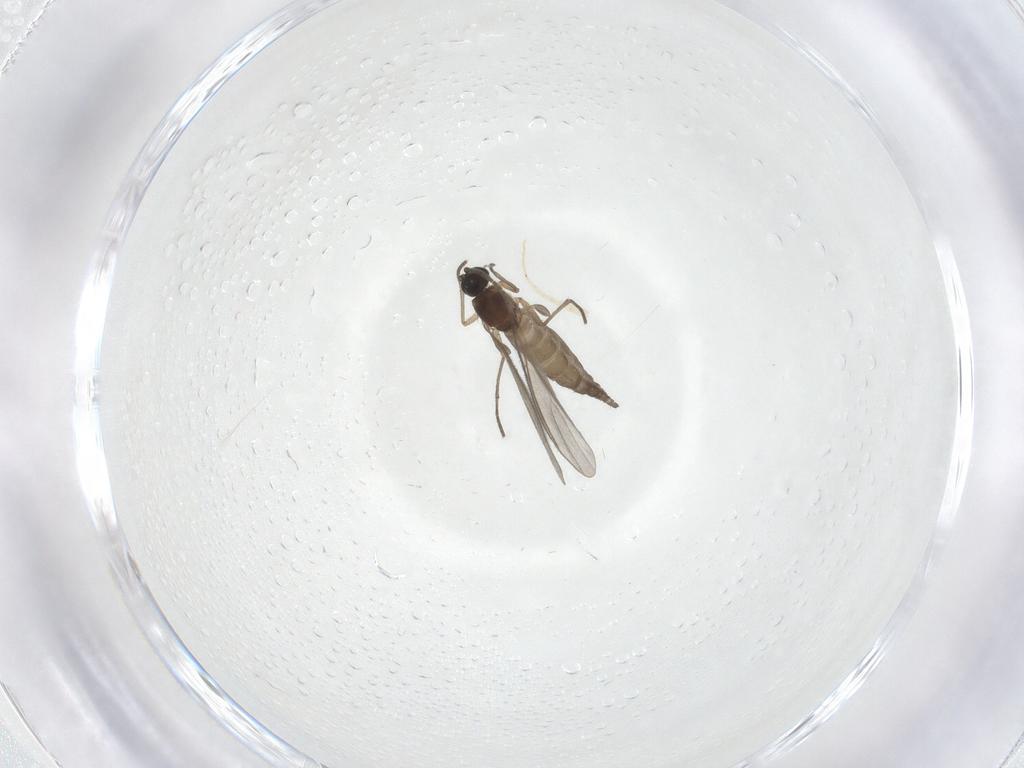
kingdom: Animalia
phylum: Arthropoda
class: Insecta
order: Diptera
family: Sciaridae
